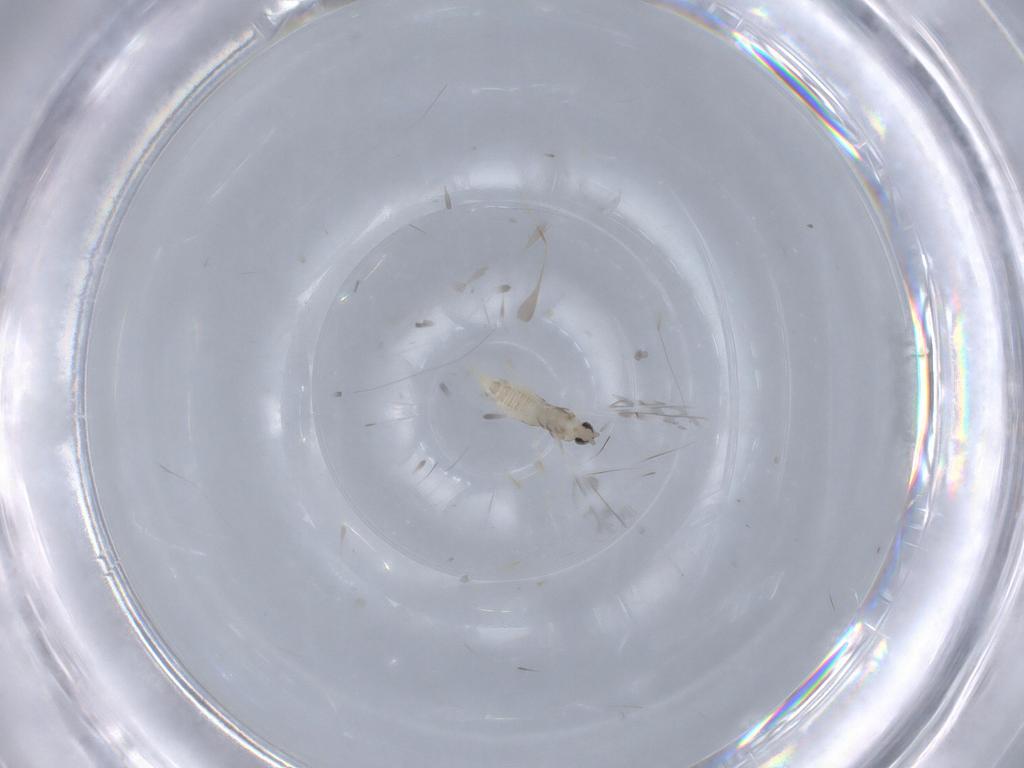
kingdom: Animalia
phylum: Arthropoda
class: Insecta
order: Diptera
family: Cecidomyiidae
